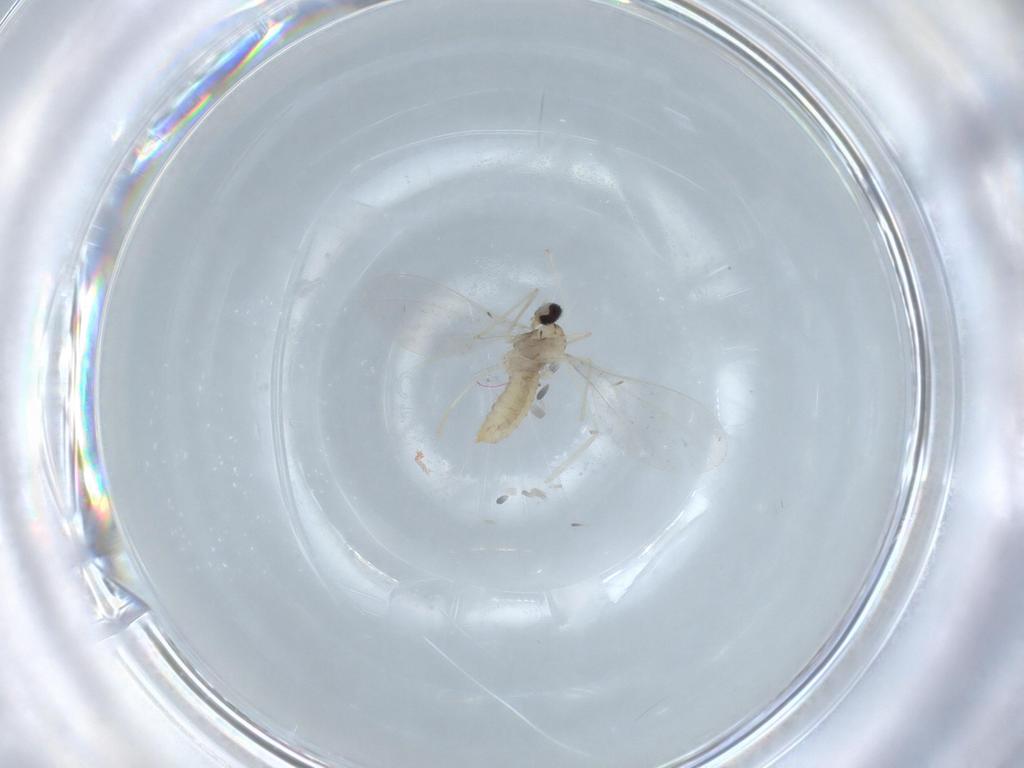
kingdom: Animalia
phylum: Arthropoda
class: Insecta
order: Diptera
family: Cecidomyiidae
